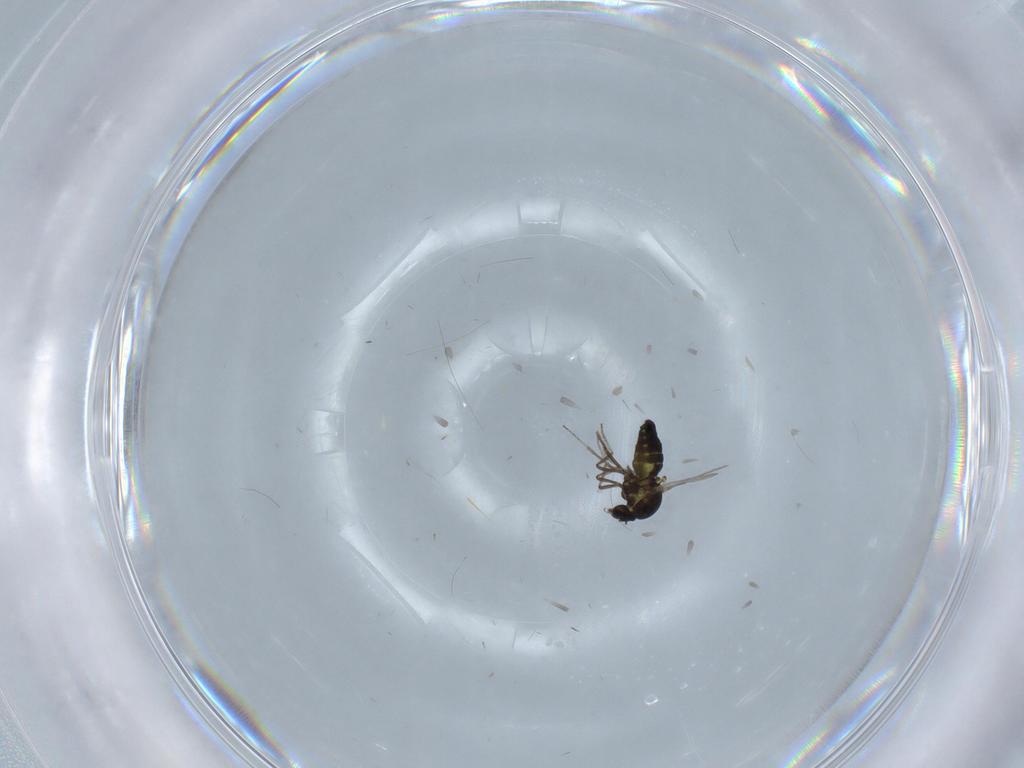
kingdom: Animalia
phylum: Arthropoda
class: Insecta
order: Diptera
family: Ceratopogonidae
